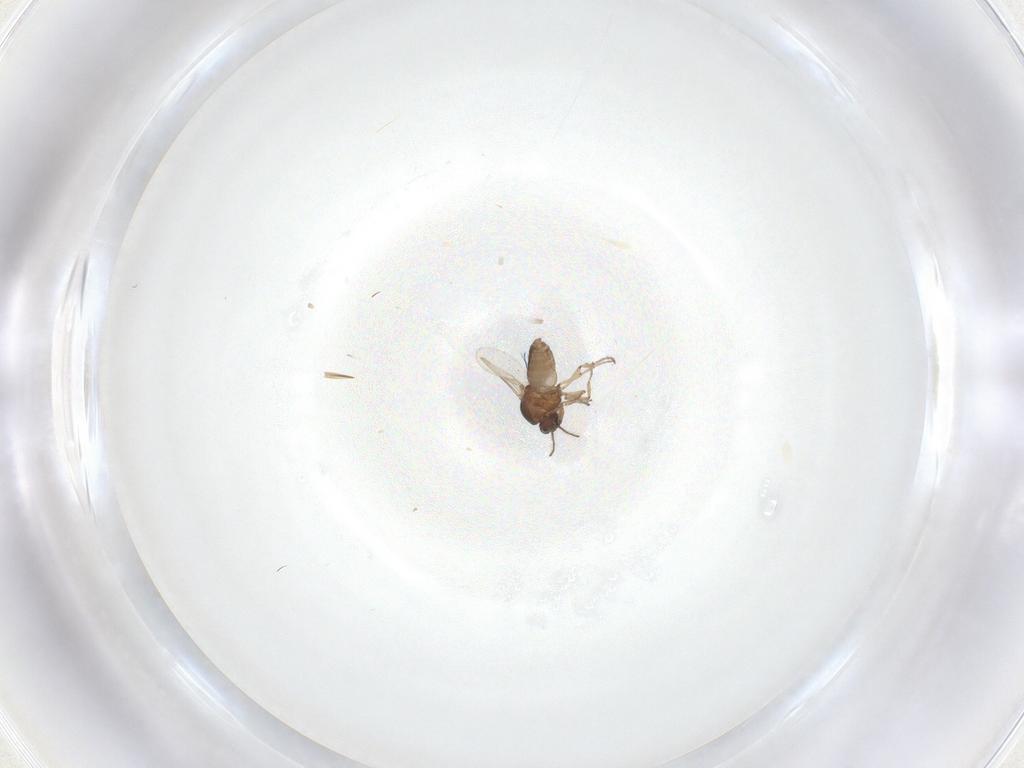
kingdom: Animalia
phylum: Arthropoda
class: Insecta
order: Diptera
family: Ceratopogonidae
